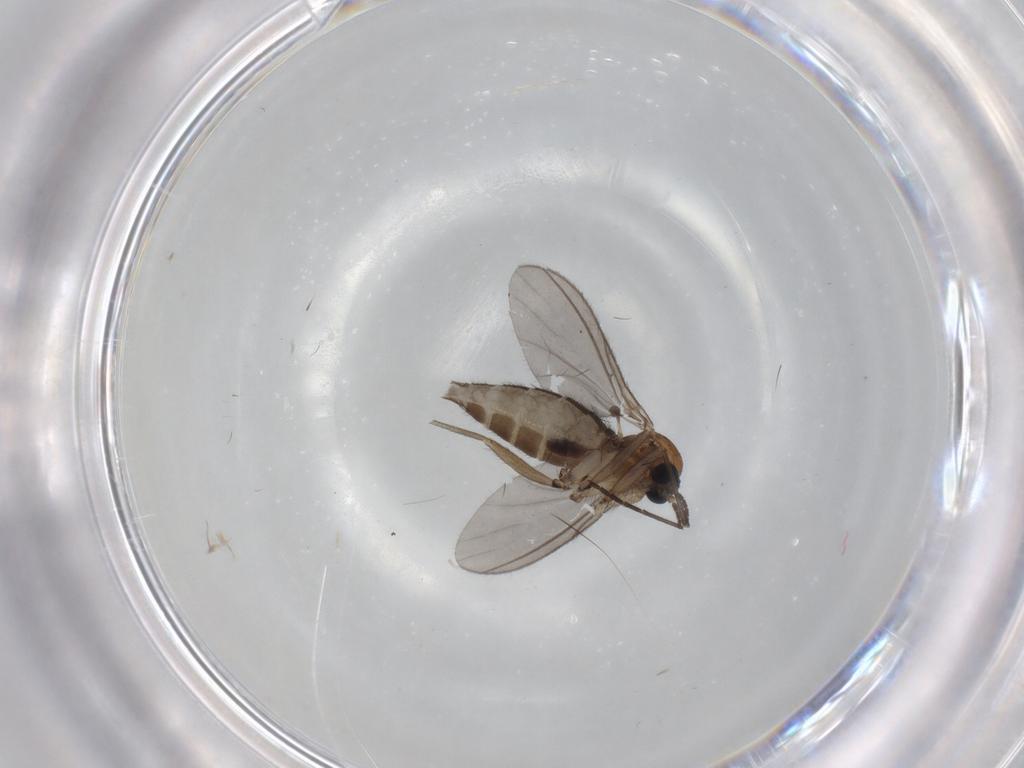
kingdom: Animalia
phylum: Arthropoda
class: Insecta
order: Diptera
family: Sciaridae
